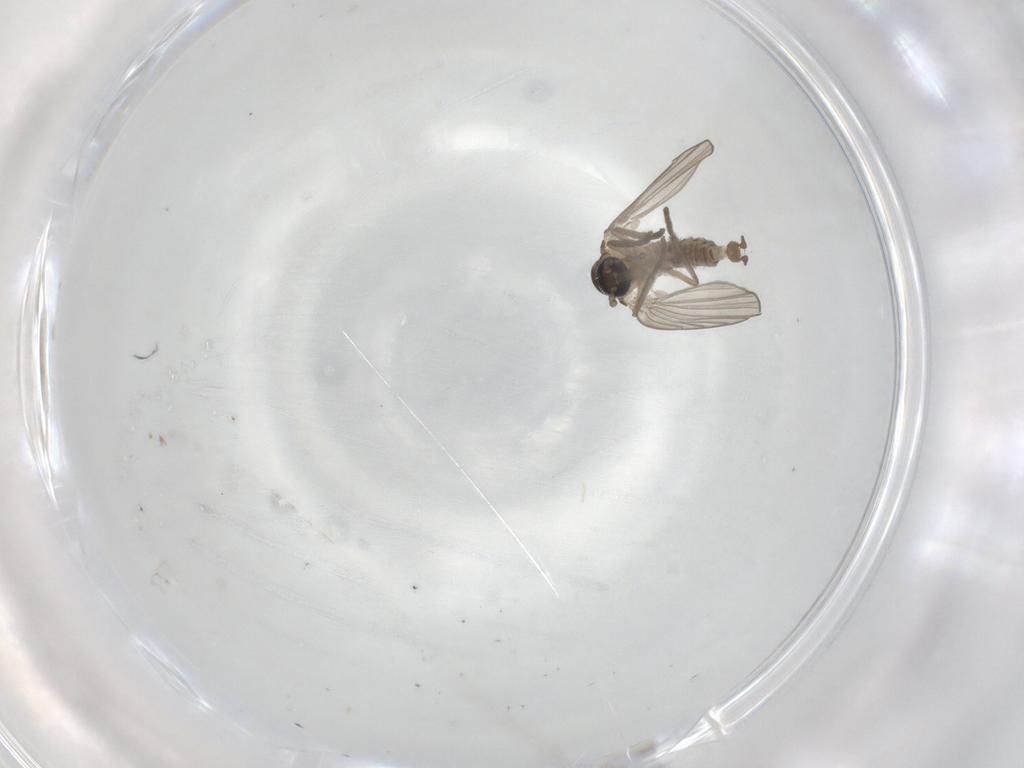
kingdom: Animalia
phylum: Arthropoda
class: Insecta
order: Diptera
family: Psychodidae
